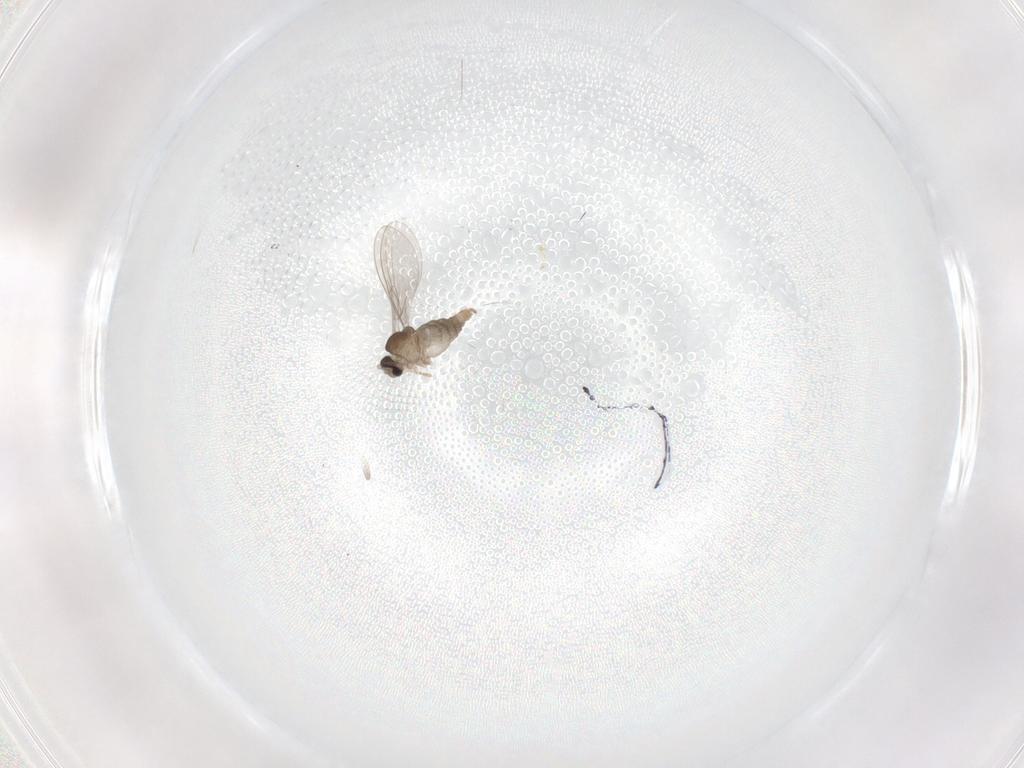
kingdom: Animalia
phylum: Arthropoda
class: Insecta
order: Diptera
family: Cecidomyiidae
